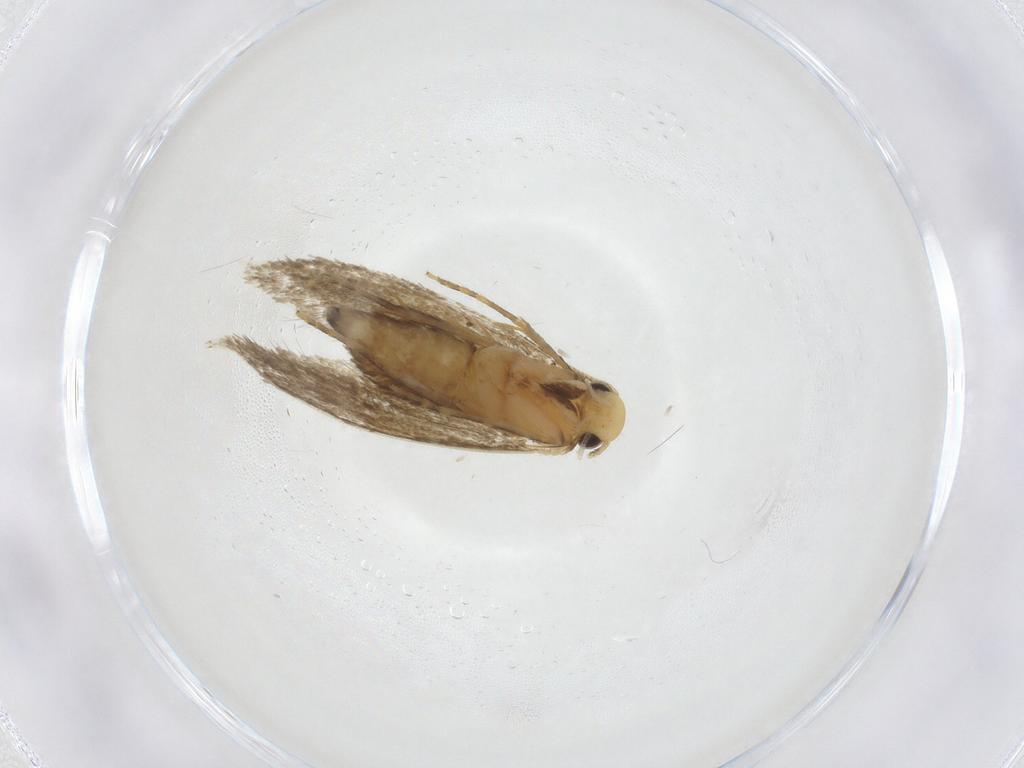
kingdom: Animalia
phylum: Arthropoda
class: Insecta
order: Lepidoptera
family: Tineidae
